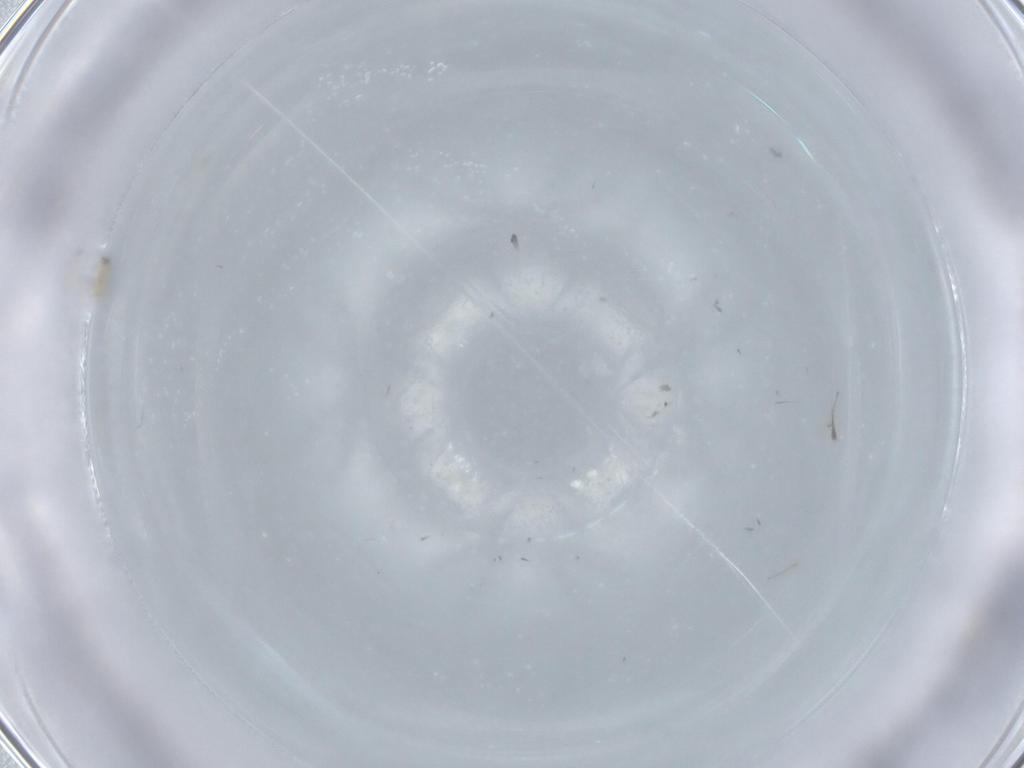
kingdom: Animalia
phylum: Arthropoda
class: Insecta
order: Diptera
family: Chloropidae
